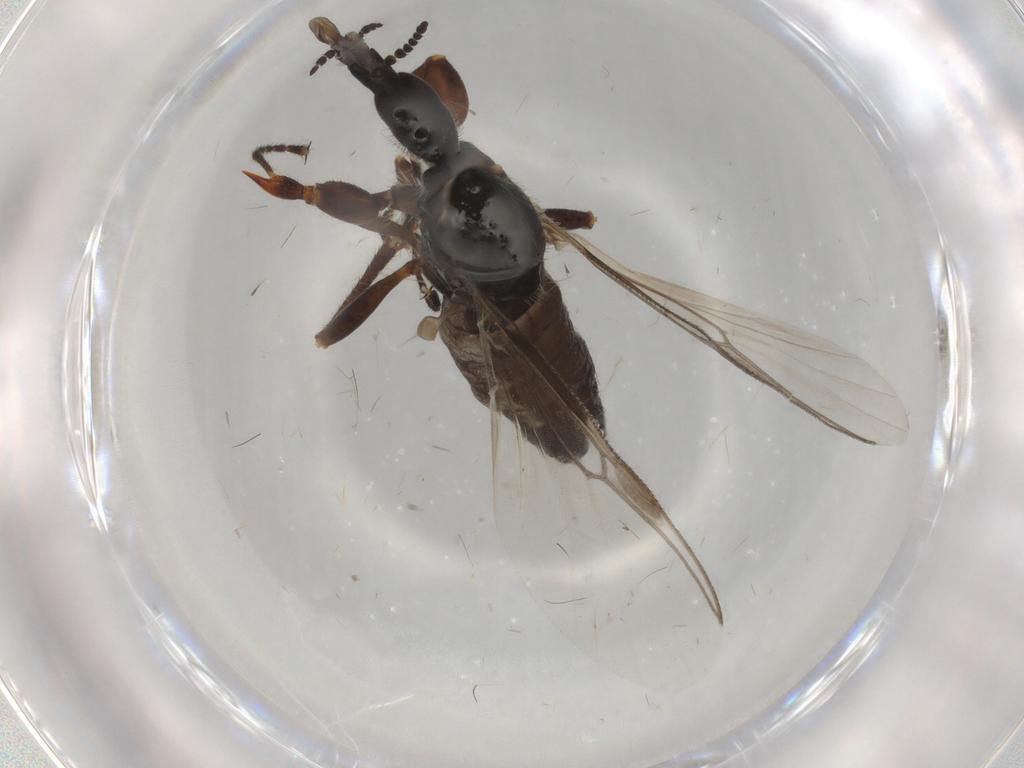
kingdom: Animalia
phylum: Arthropoda
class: Insecta
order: Diptera
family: Bibionidae
